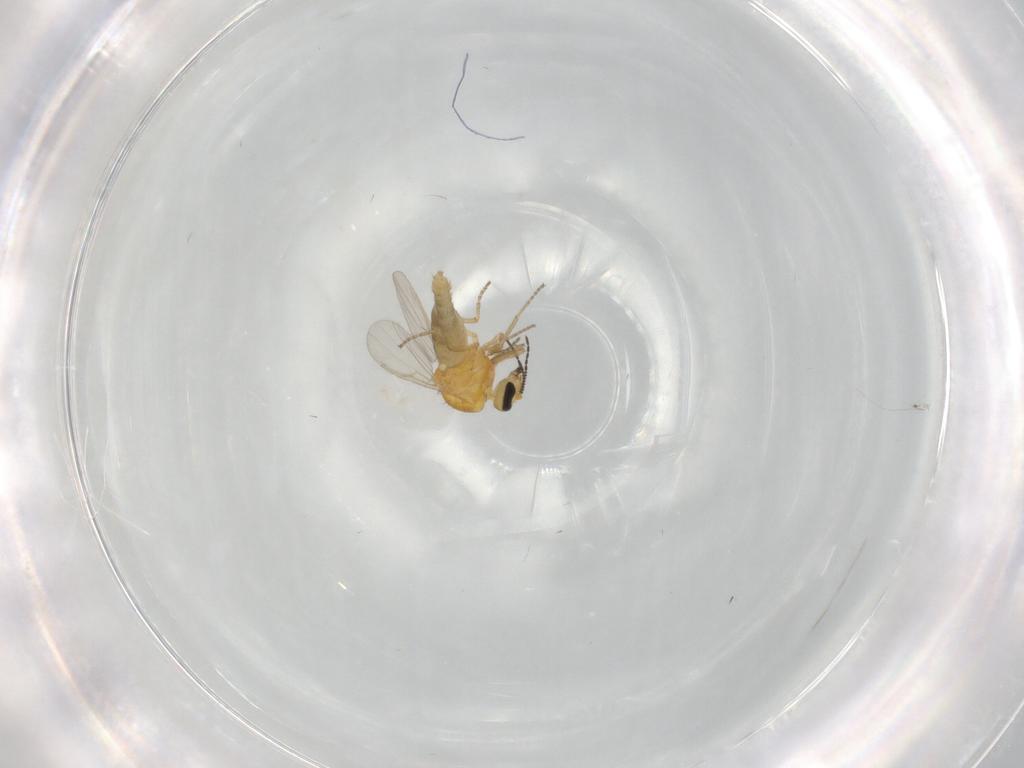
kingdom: Animalia
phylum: Arthropoda
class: Insecta
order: Diptera
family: Ceratopogonidae
